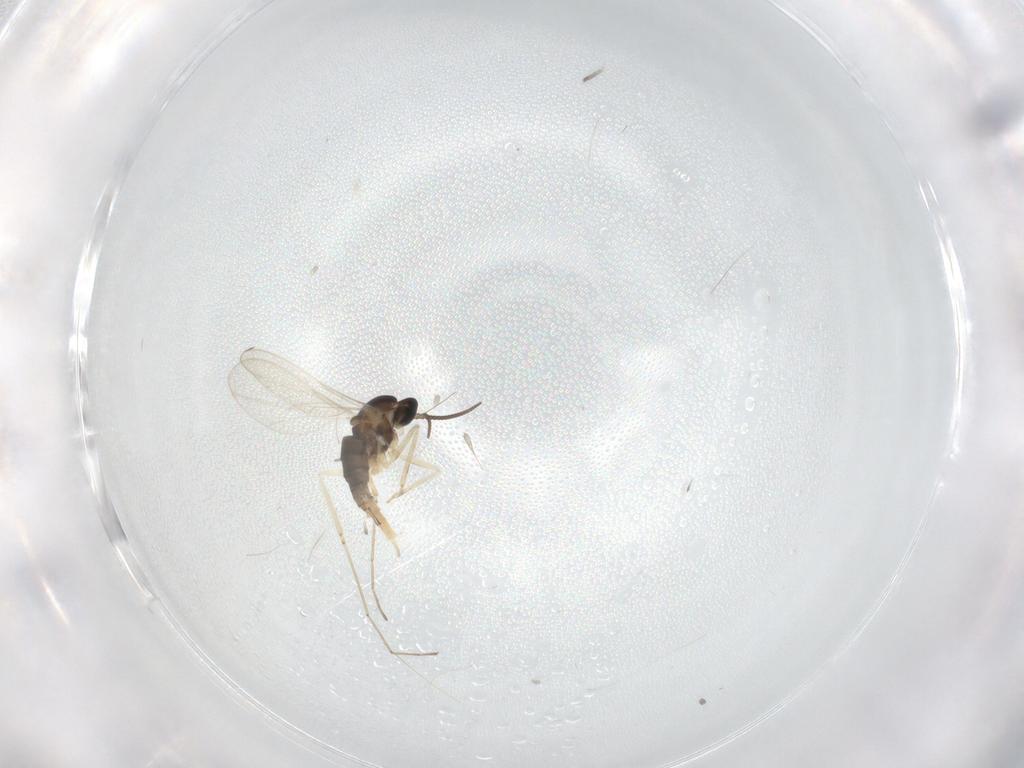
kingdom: Animalia
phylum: Arthropoda
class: Insecta
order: Diptera
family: Cecidomyiidae
